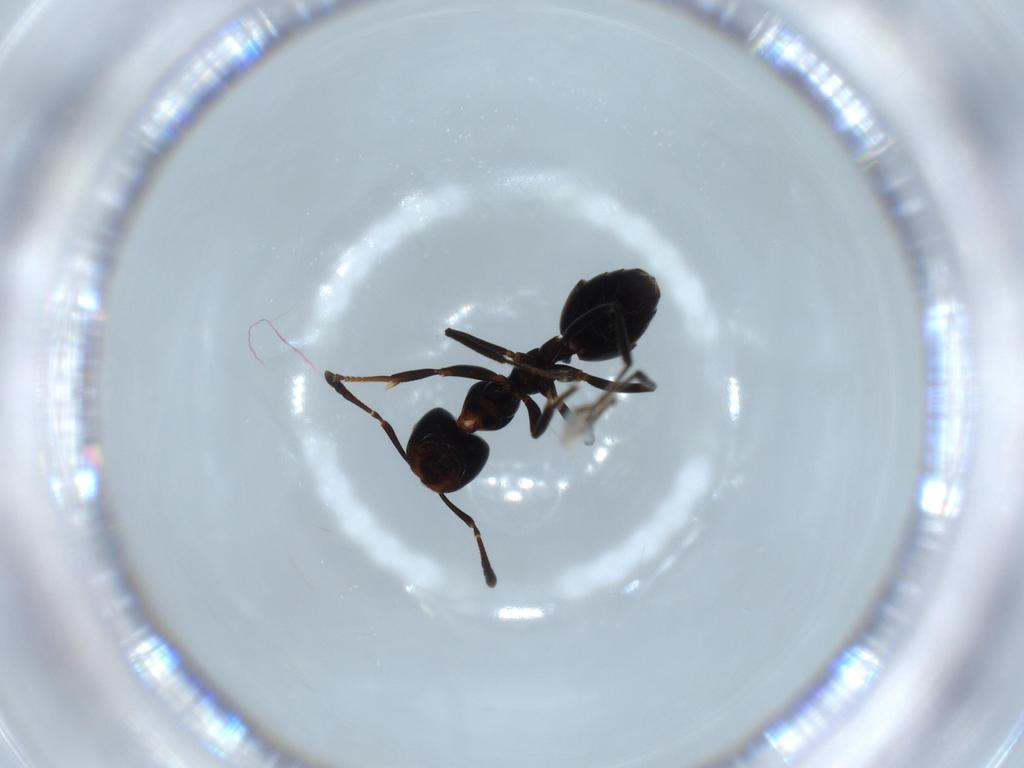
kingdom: Animalia
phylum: Arthropoda
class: Insecta
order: Hymenoptera
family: Formicidae
